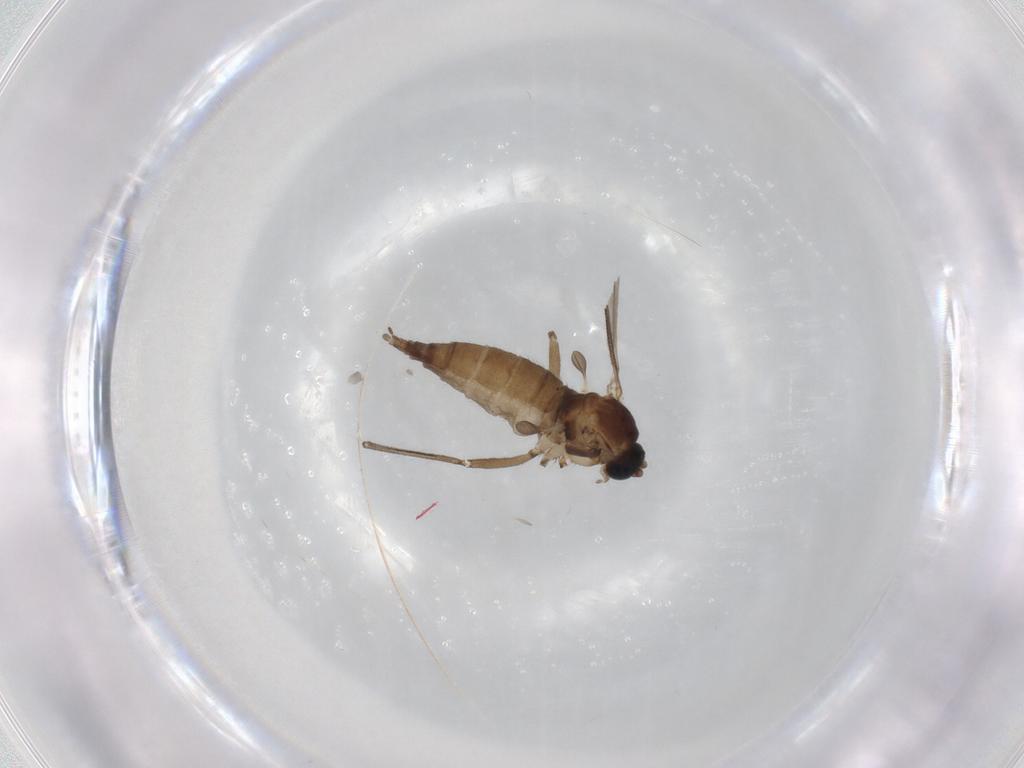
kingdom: Animalia
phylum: Arthropoda
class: Insecta
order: Diptera
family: Sciaridae
